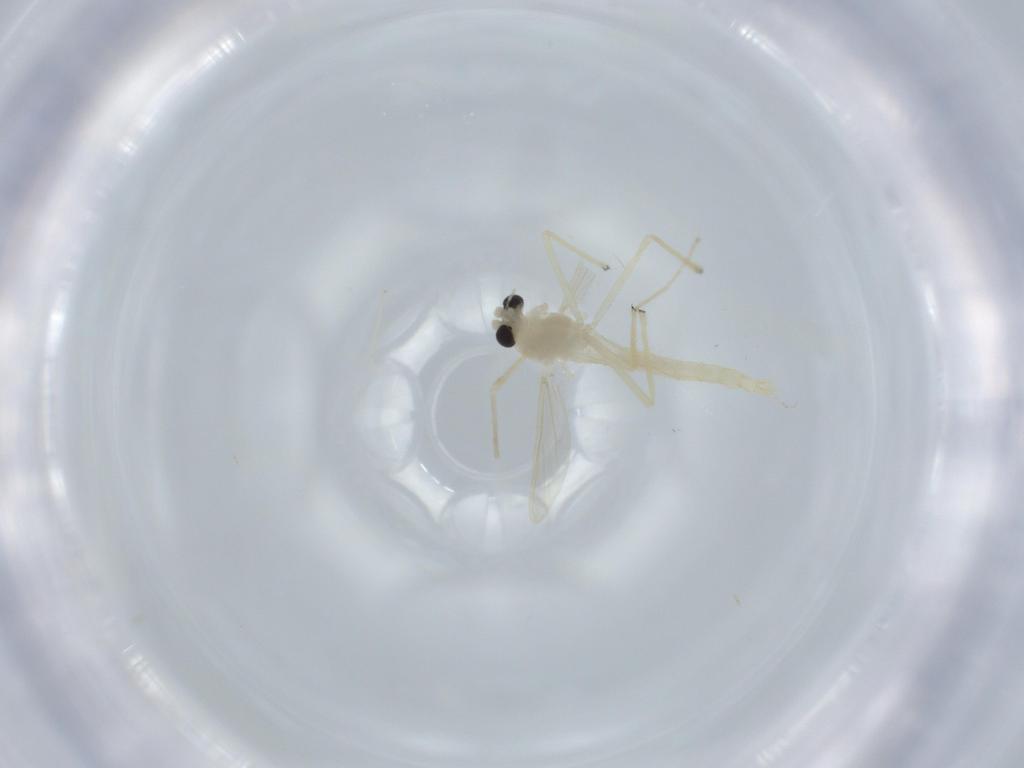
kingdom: Animalia
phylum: Arthropoda
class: Insecta
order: Diptera
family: Chironomidae
